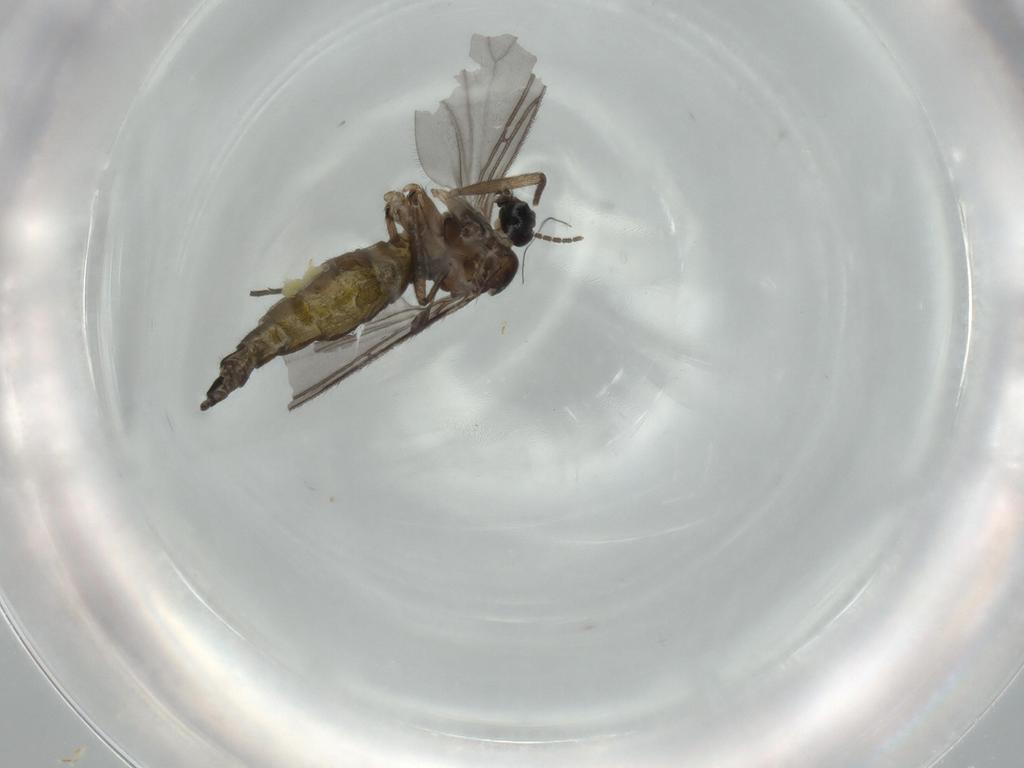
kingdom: Animalia
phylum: Arthropoda
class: Insecta
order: Diptera
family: Sciaridae
